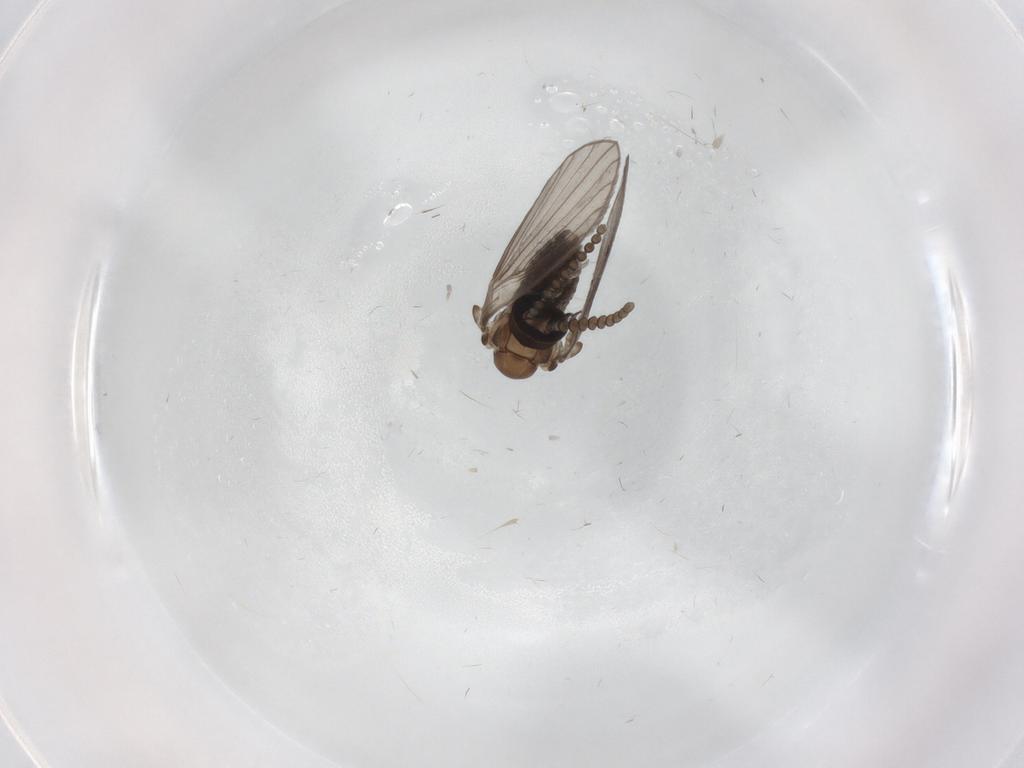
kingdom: Animalia
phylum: Arthropoda
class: Insecta
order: Diptera
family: Psychodidae
